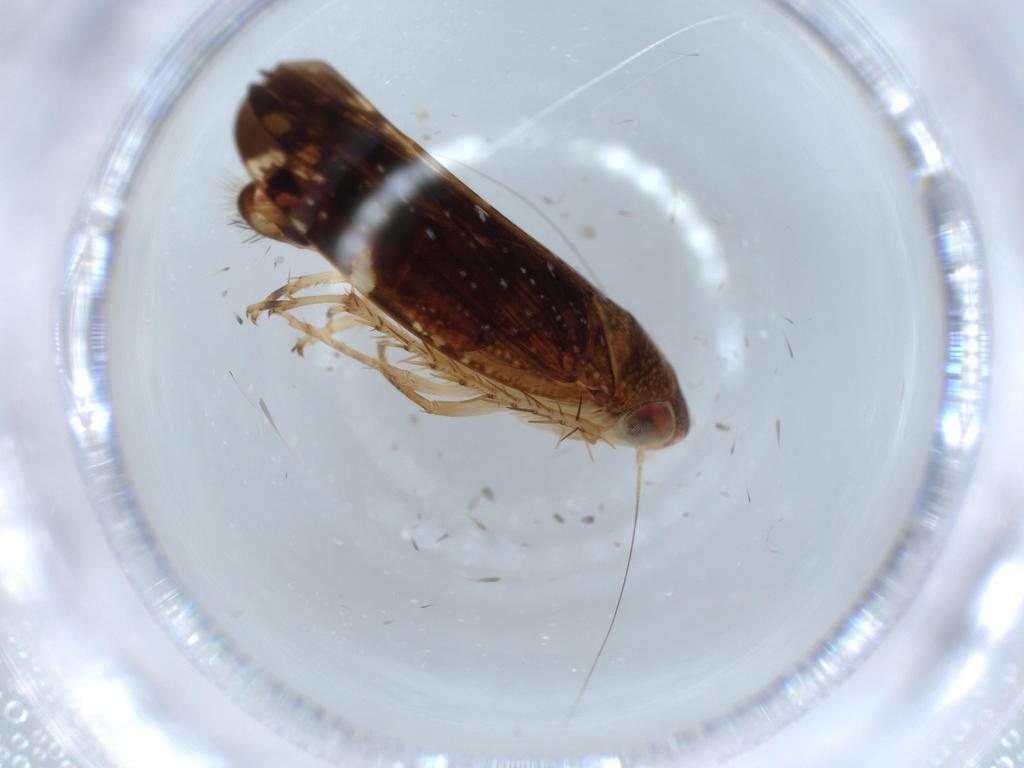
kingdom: Animalia
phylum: Arthropoda
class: Insecta
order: Hemiptera
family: Cicadellidae
